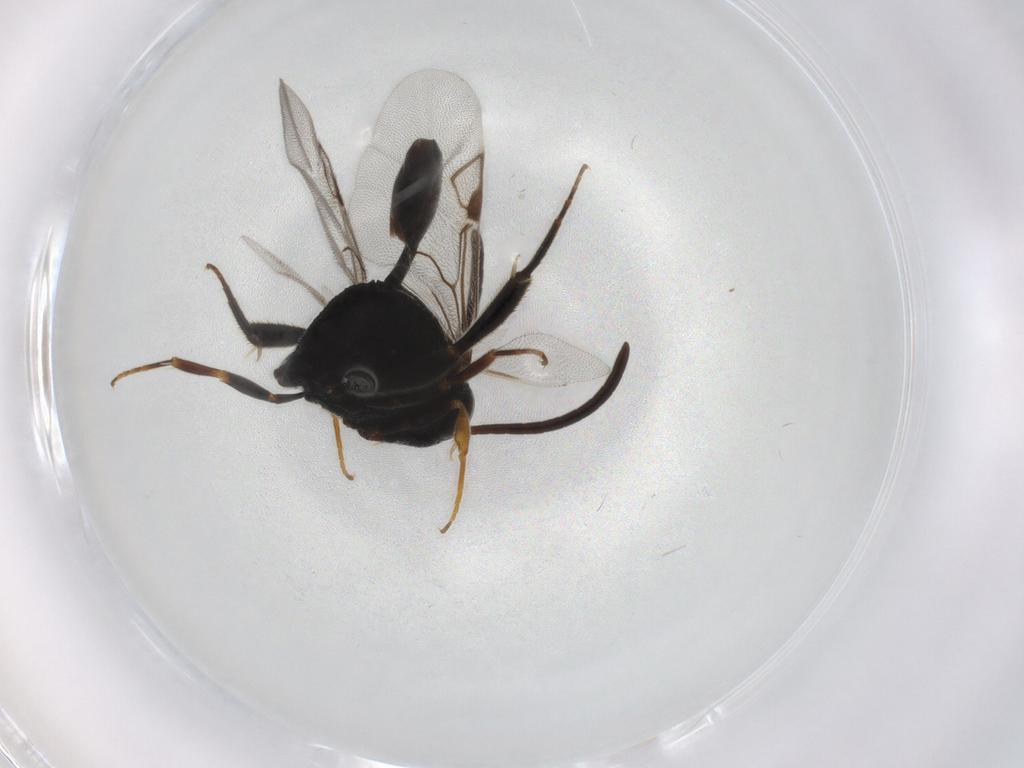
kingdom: Animalia
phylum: Arthropoda
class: Insecta
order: Hymenoptera
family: Evaniidae
